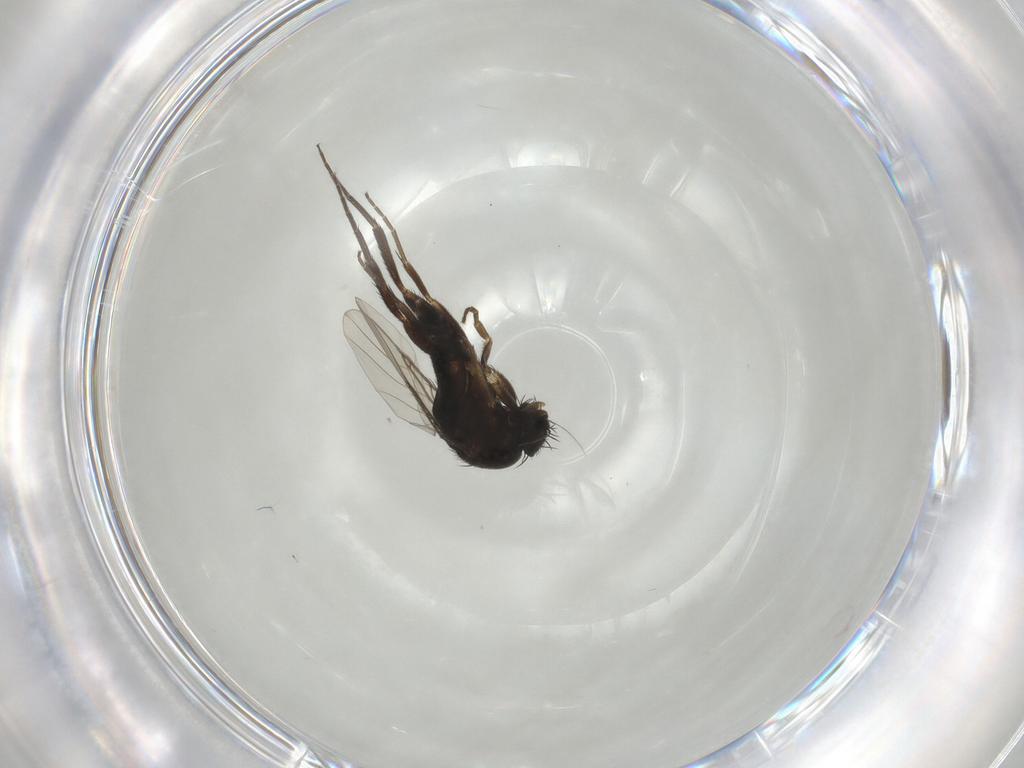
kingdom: Animalia
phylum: Arthropoda
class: Insecta
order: Diptera
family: Phoridae
